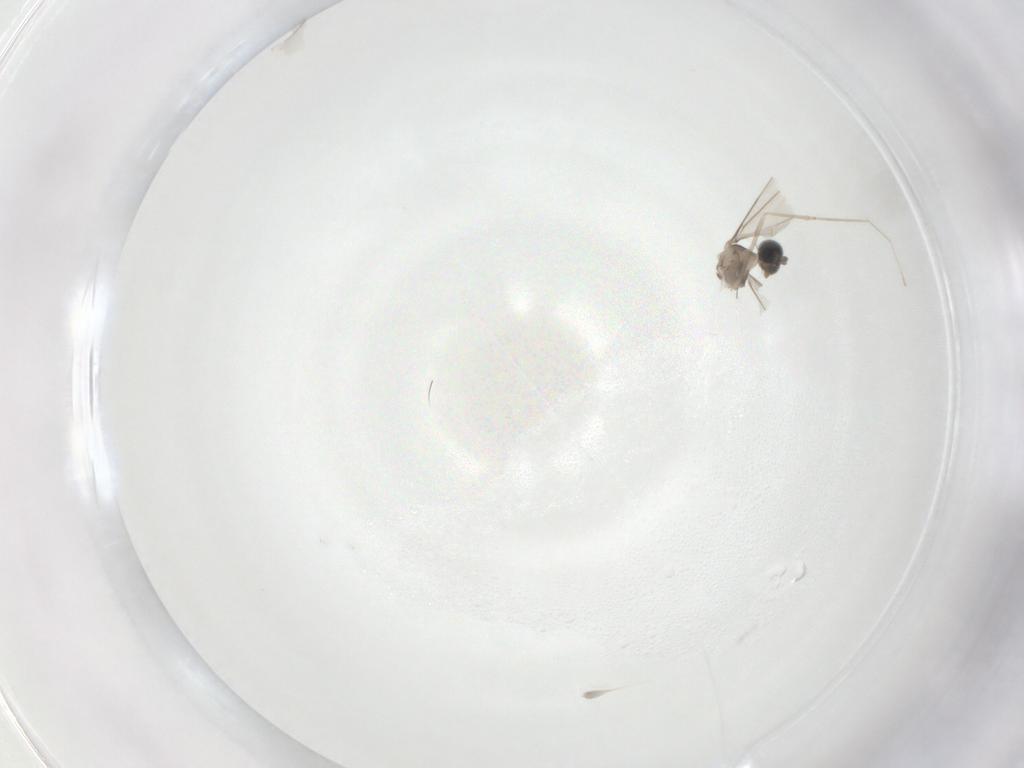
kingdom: Animalia
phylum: Arthropoda
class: Insecta
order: Diptera
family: Cecidomyiidae
